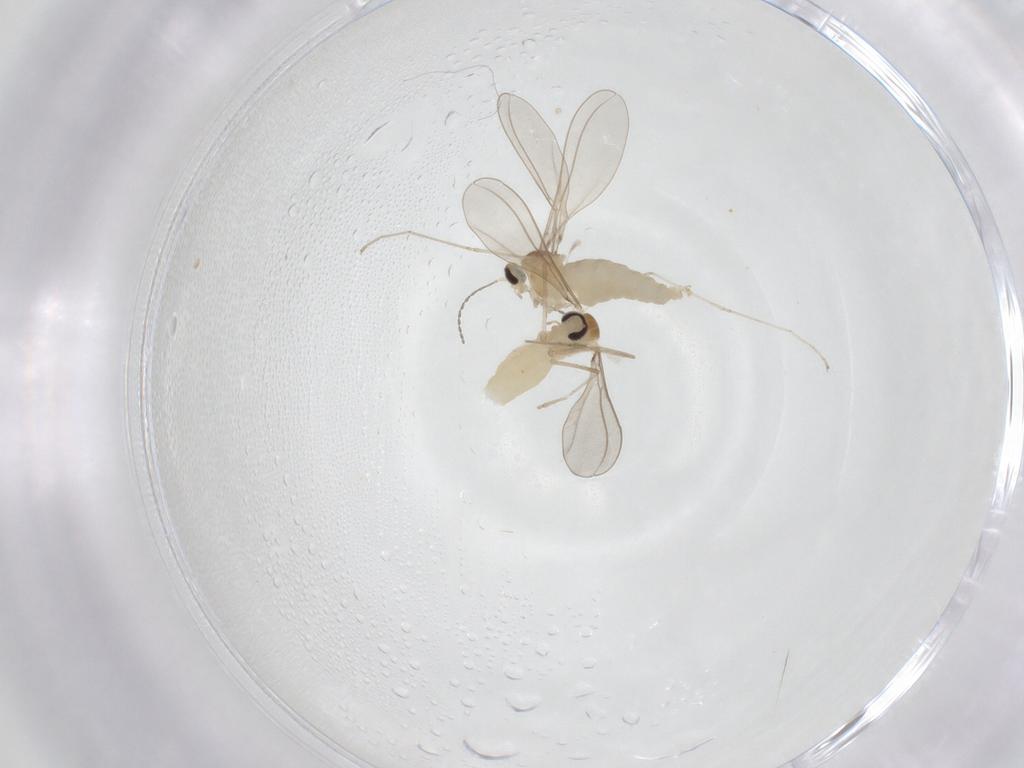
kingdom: Animalia
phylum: Arthropoda
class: Insecta
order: Diptera
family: Cecidomyiidae
